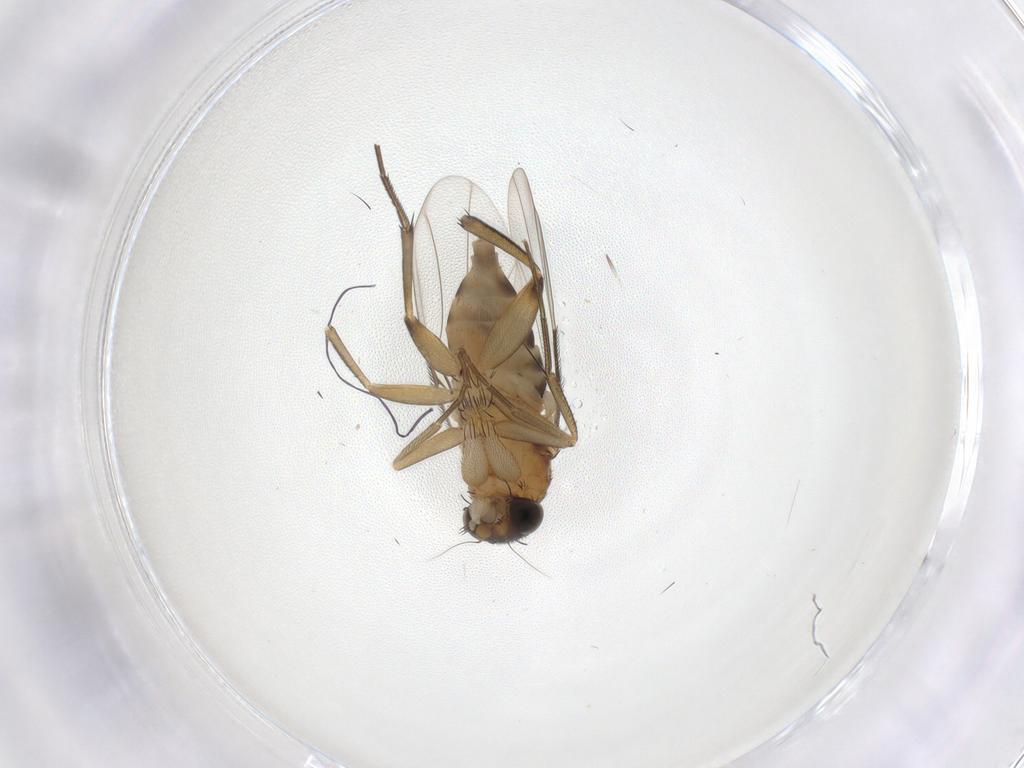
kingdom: Animalia
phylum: Arthropoda
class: Insecta
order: Diptera
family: Phoridae
